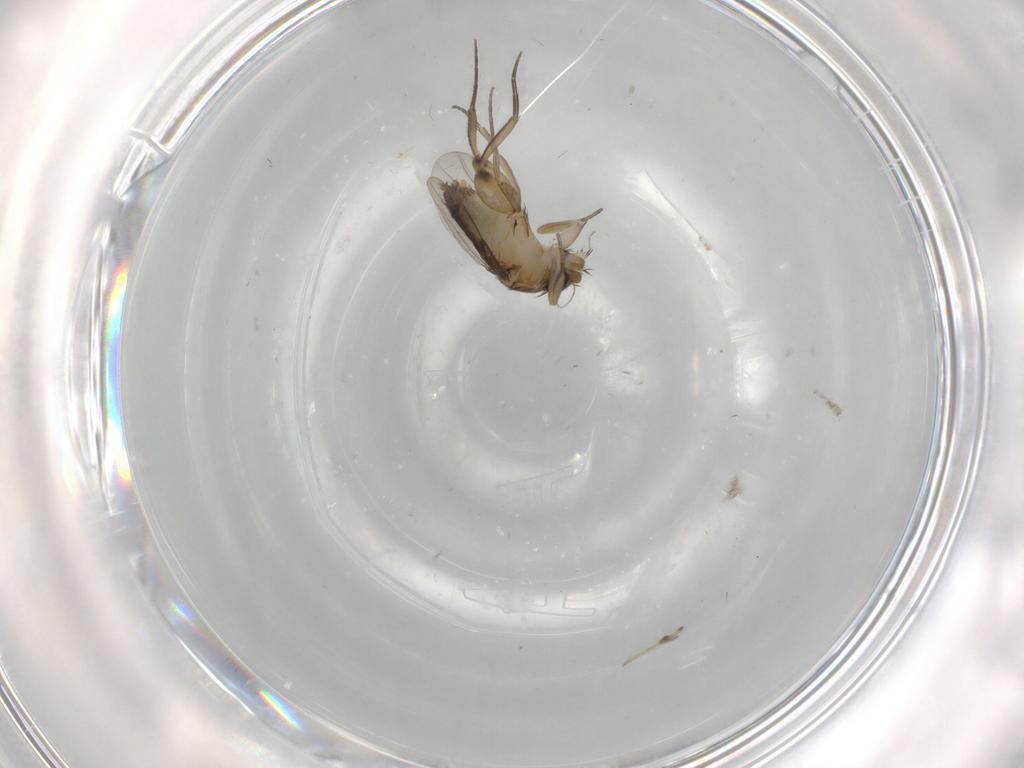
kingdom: Animalia
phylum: Arthropoda
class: Insecta
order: Diptera
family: Phoridae
